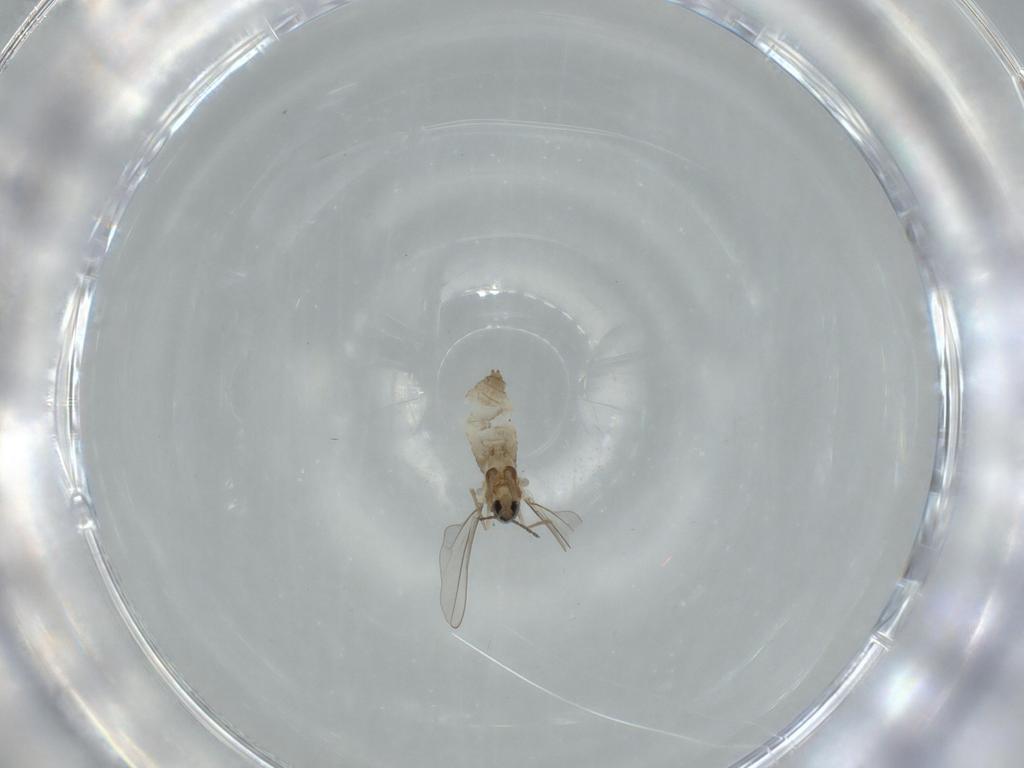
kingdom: Animalia
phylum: Arthropoda
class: Insecta
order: Diptera
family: Cecidomyiidae
